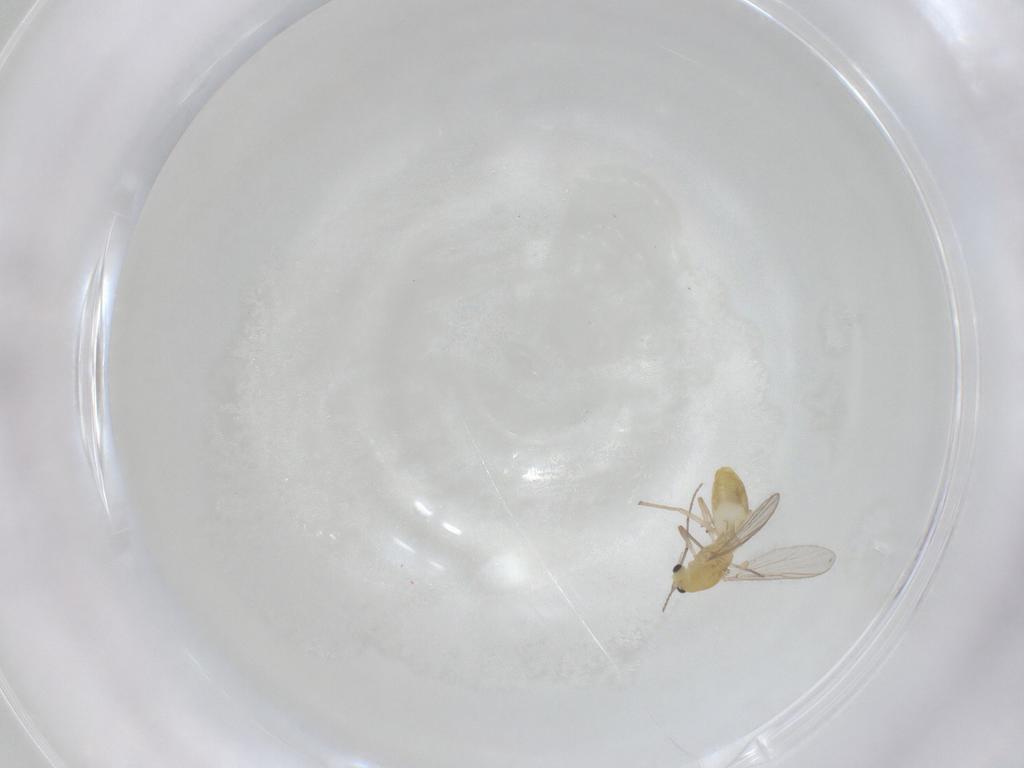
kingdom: Animalia
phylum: Arthropoda
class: Insecta
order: Diptera
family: Chironomidae
